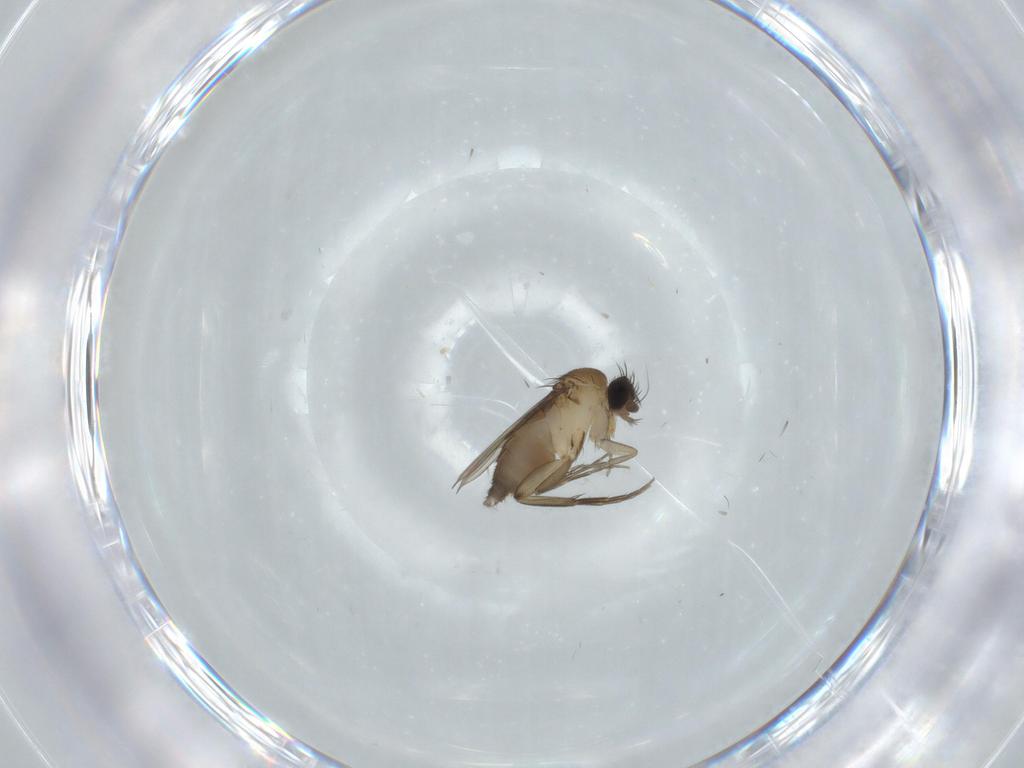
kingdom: Animalia
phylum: Arthropoda
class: Insecta
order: Diptera
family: Phoridae
